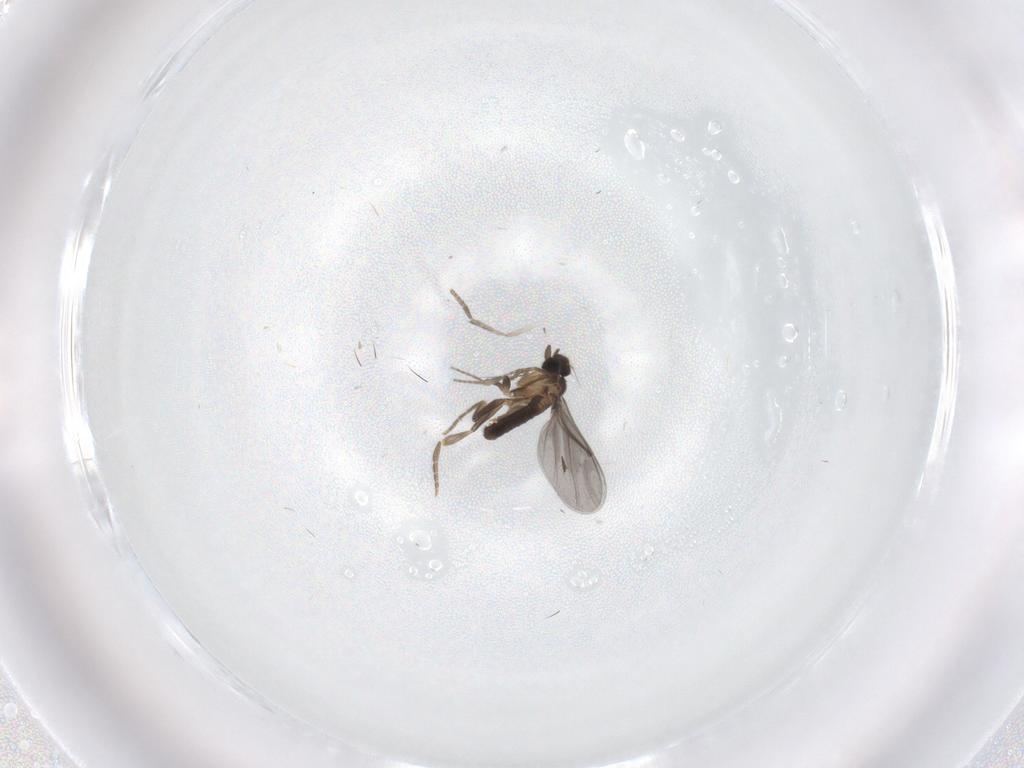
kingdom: Animalia
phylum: Arthropoda
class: Insecta
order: Diptera
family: Psychodidae
